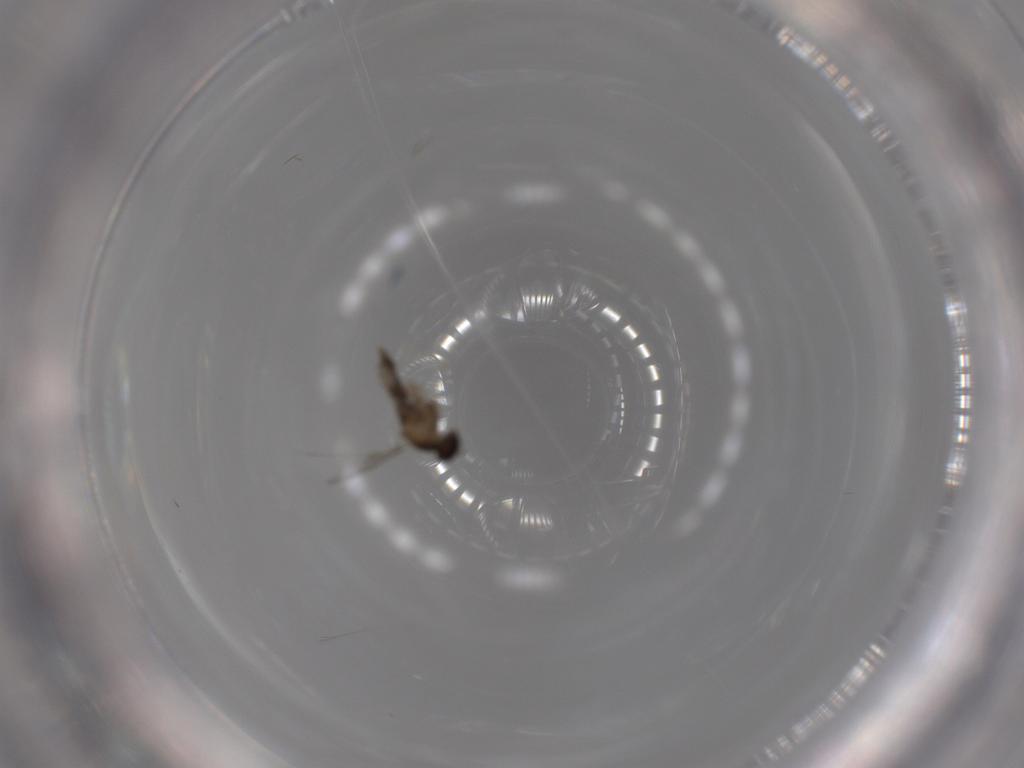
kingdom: Animalia
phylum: Arthropoda
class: Insecta
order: Diptera
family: Cecidomyiidae
